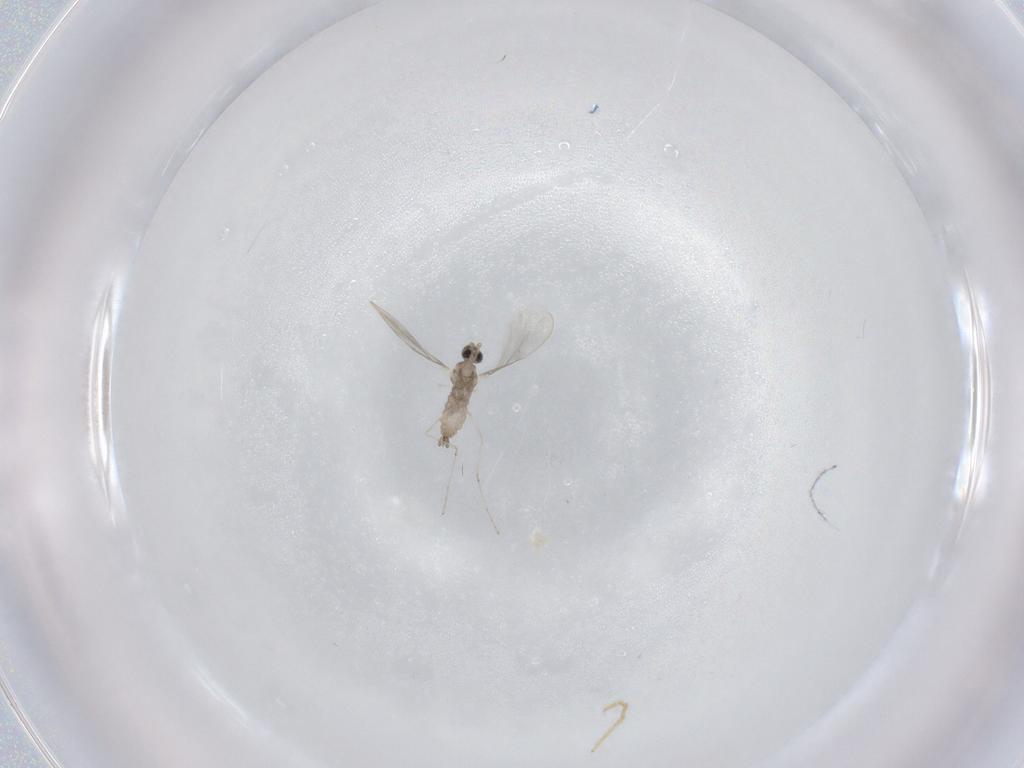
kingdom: Animalia
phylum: Arthropoda
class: Insecta
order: Diptera
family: Cecidomyiidae
